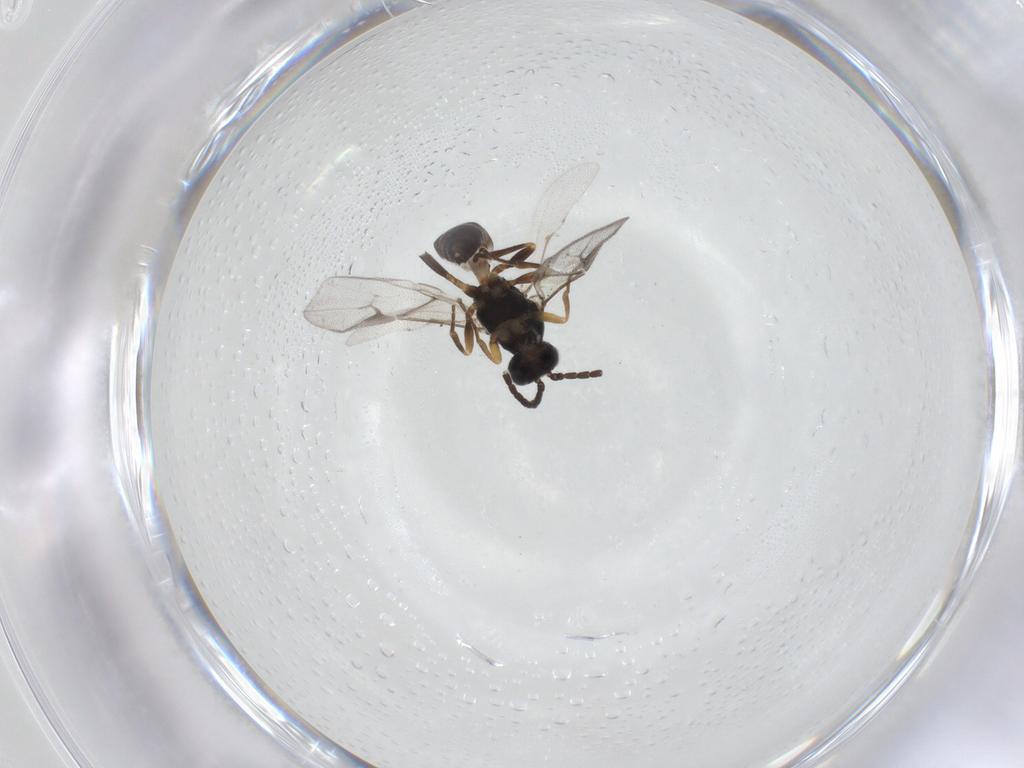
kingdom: Animalia
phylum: Arthropoda
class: Insecta
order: Hymenoptera
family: Braconidae
